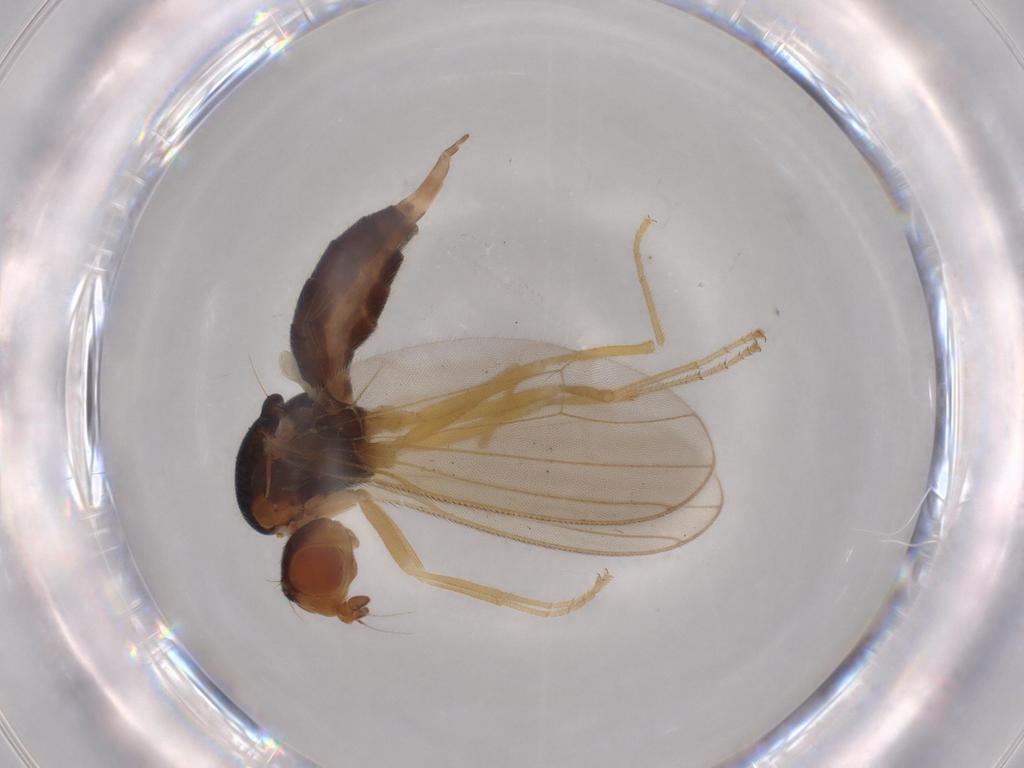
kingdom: Animalia
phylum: Arthropoda
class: Insecta
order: Diptera
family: Psilidae
